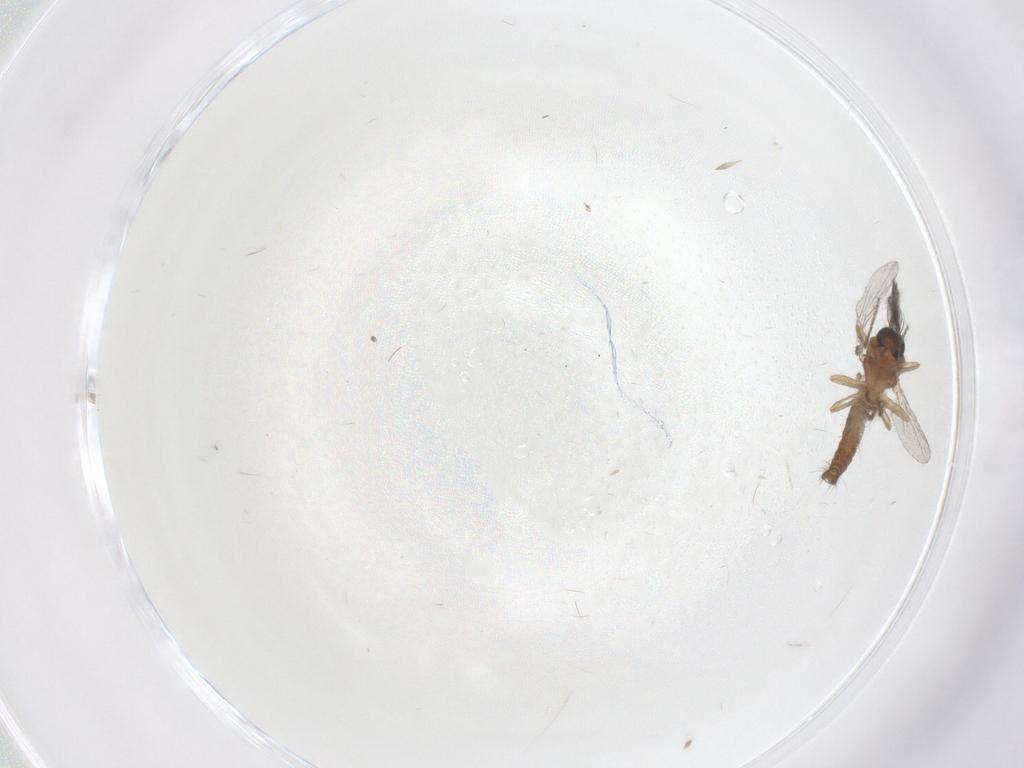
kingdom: Animalia
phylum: Arthropoda
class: Insecta
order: Diptera
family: Ceratopogonidae
